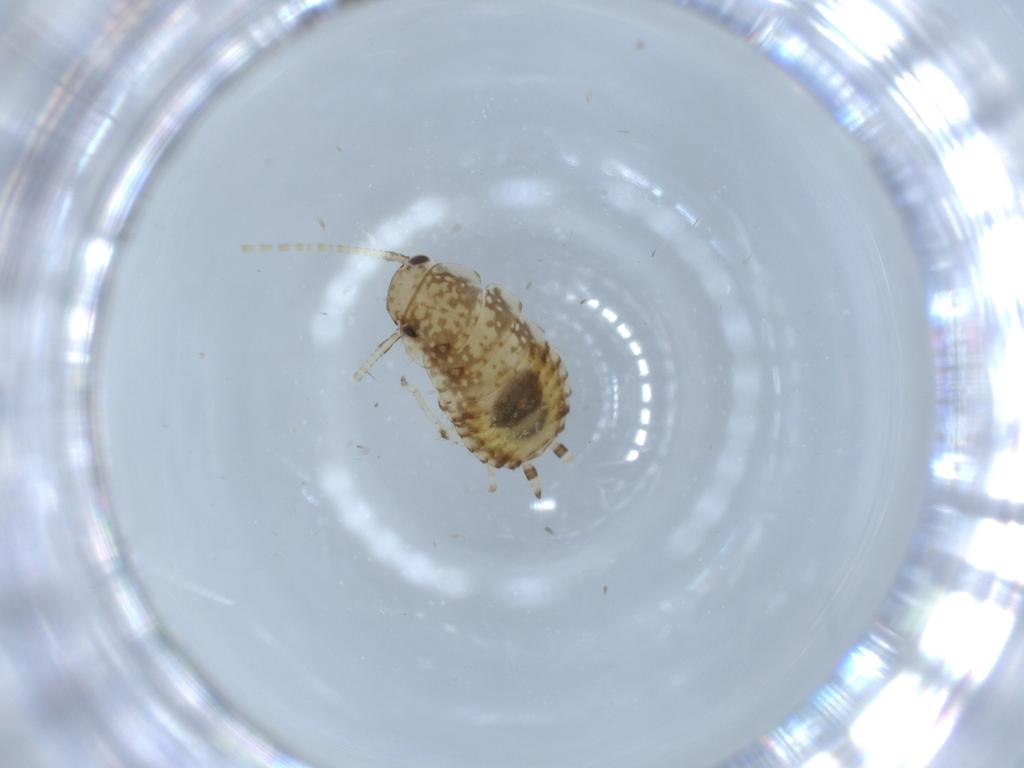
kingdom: Animalia
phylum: Arthropoda
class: Insecta
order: Blattodea
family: Ectobiidae
